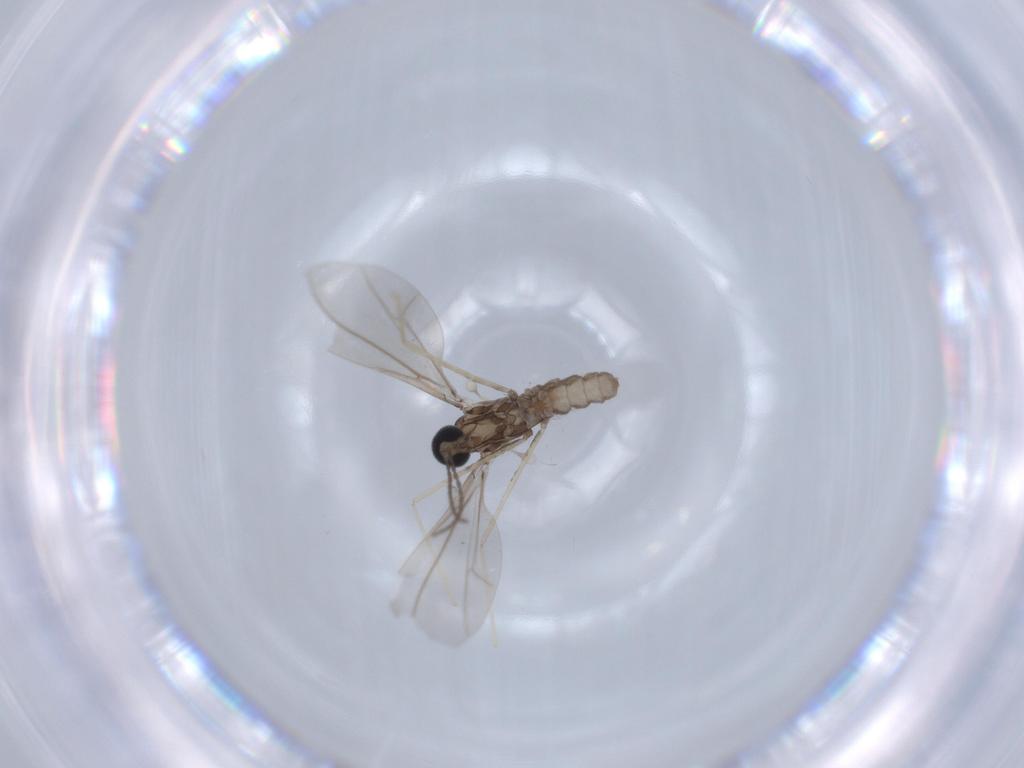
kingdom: Animalia
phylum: Arthropoda
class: Insecta
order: Diptera
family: Cecidomyiidae
